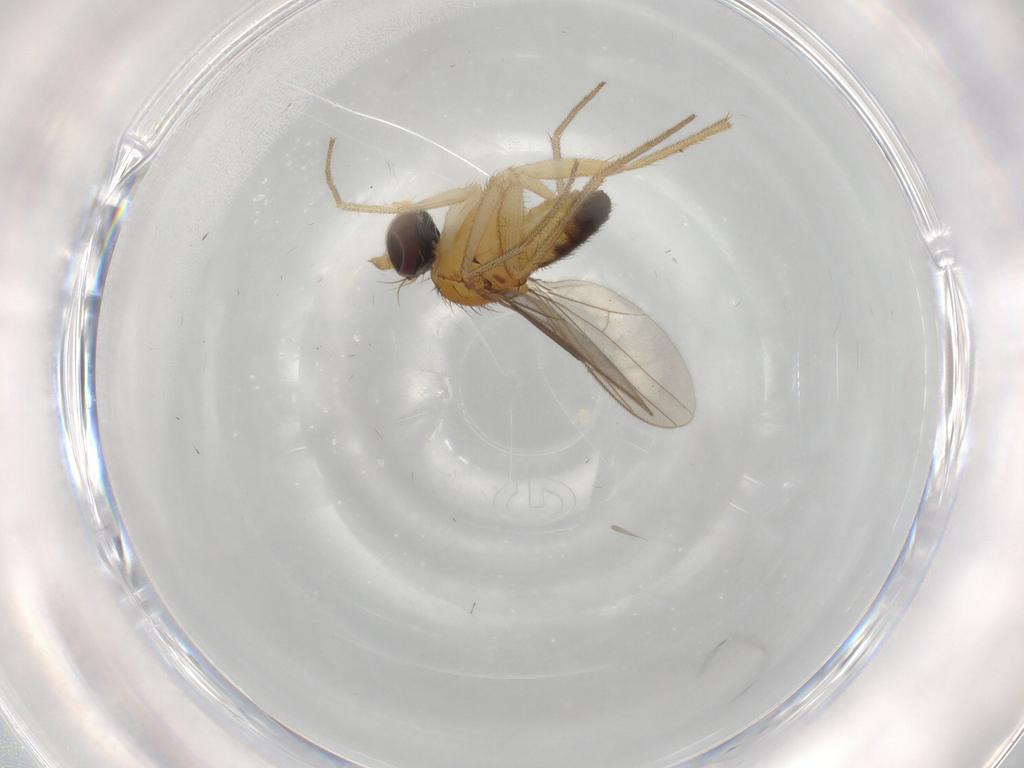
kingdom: Animalia
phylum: Arthropoda
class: Insecta
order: Diptera
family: Dolichopodidae
